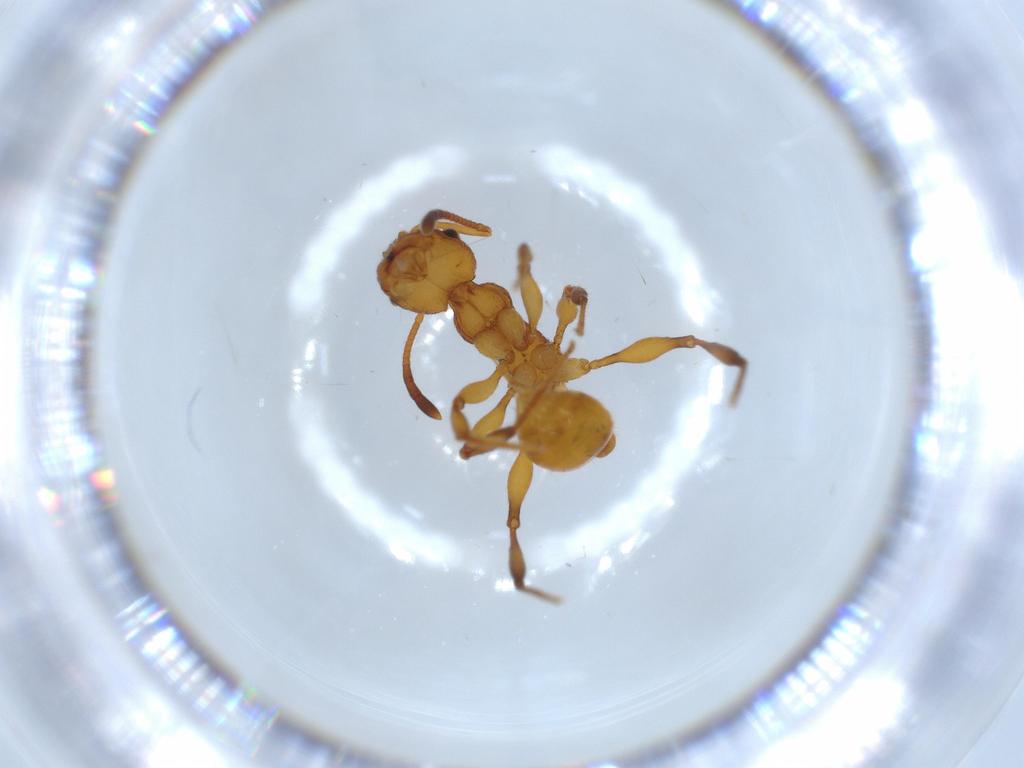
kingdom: Animalia
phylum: Arthropoda
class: Insecta
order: Hymenoptera
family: Formicidae
